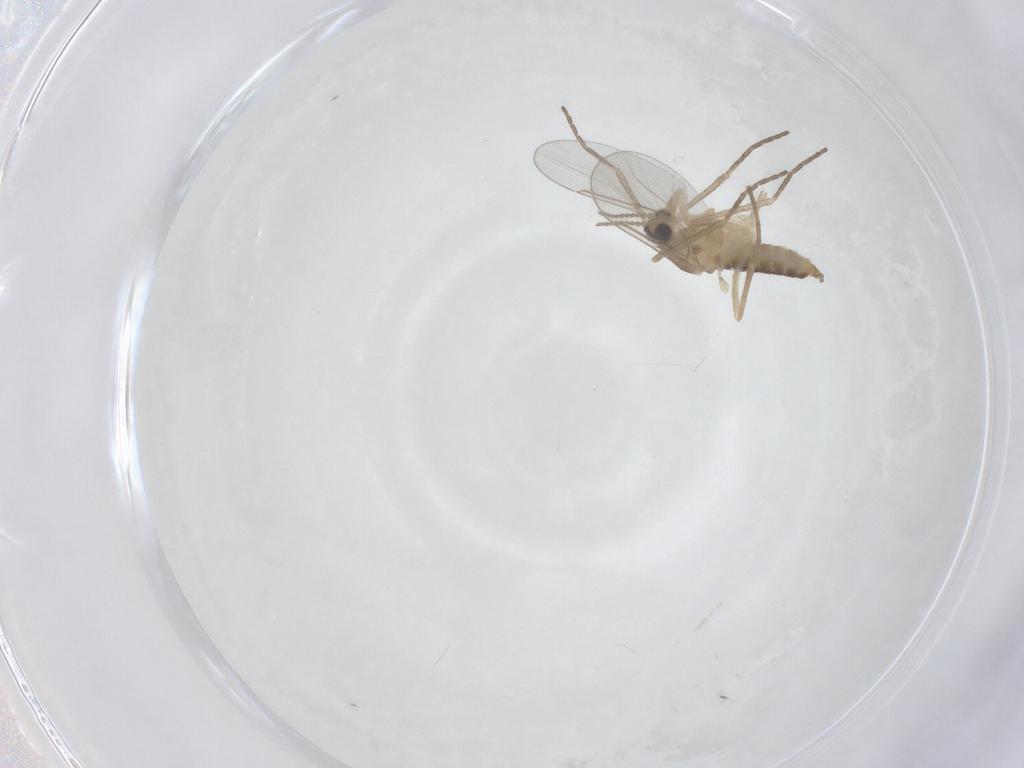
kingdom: Animalia
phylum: Arthropoda
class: Insecta
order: Diptera
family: Cecidomyiidae
